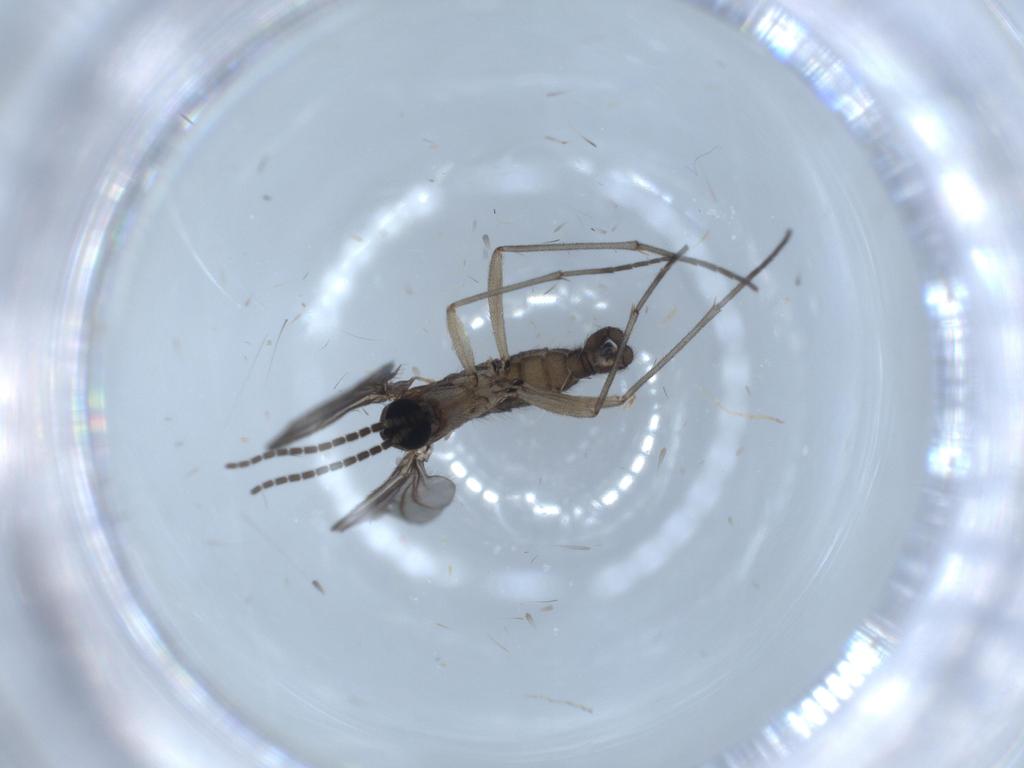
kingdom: Animalia
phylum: Arthropoda
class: Insecta
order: Diptera
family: Sciaridae
